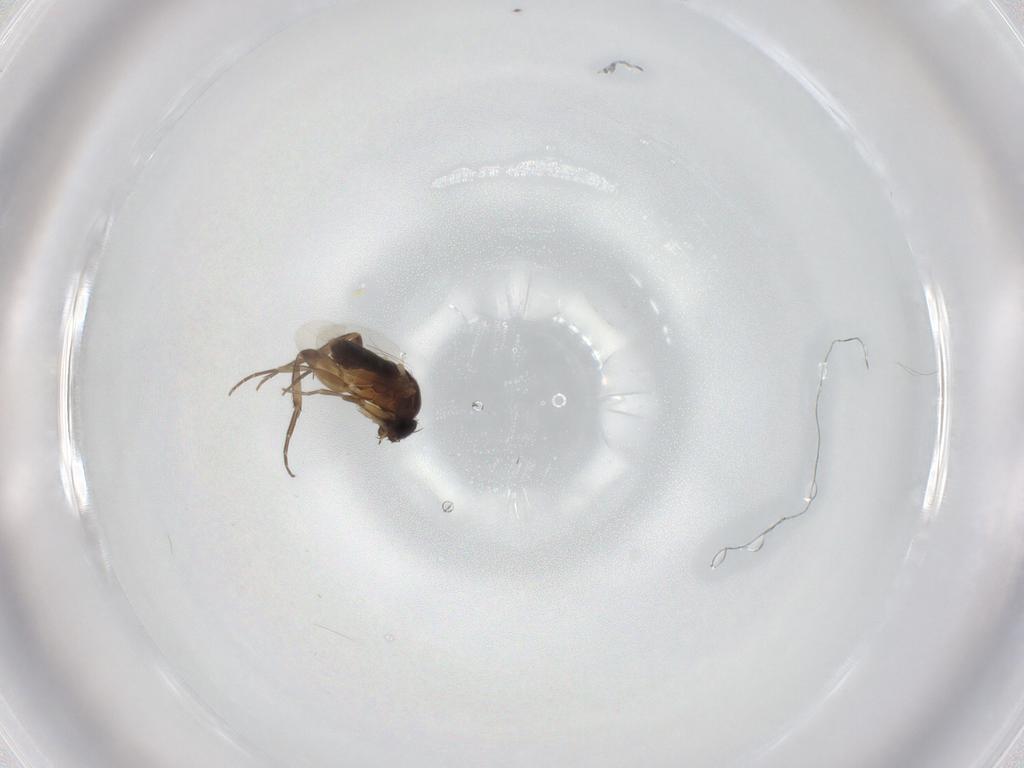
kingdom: Animalia
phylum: Arthropoda
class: Insecta
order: Diptera
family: Phoridae
